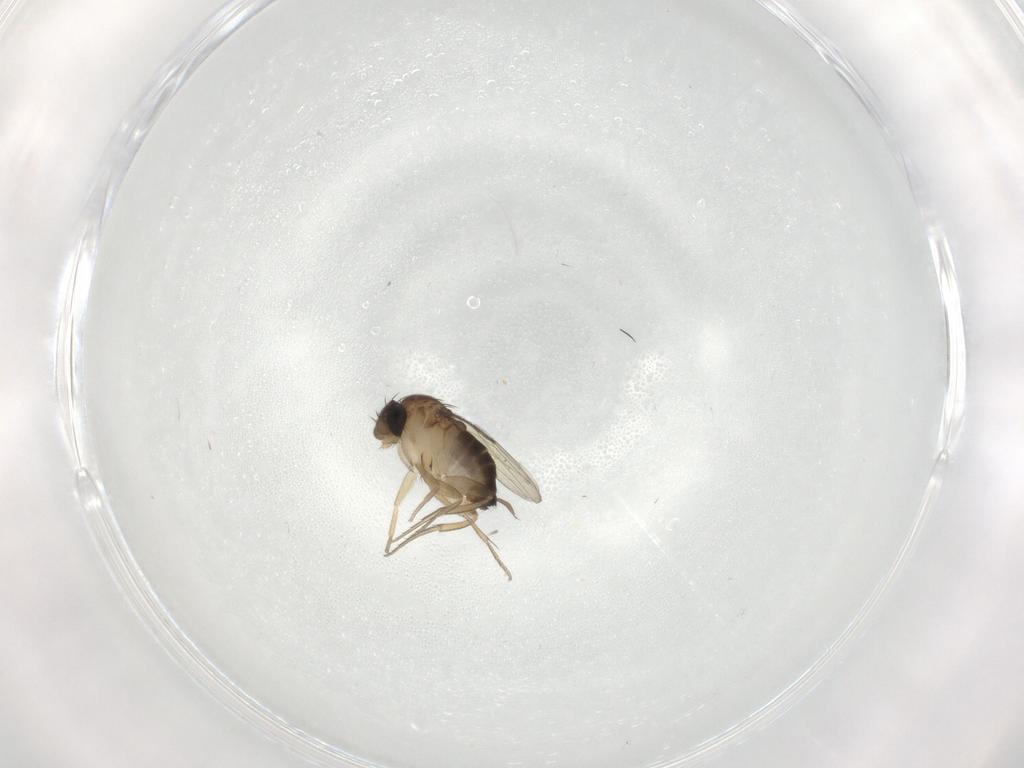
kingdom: Animalia
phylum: Arthropoda
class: Insecta
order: Diptera
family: Cecidomyiidae
